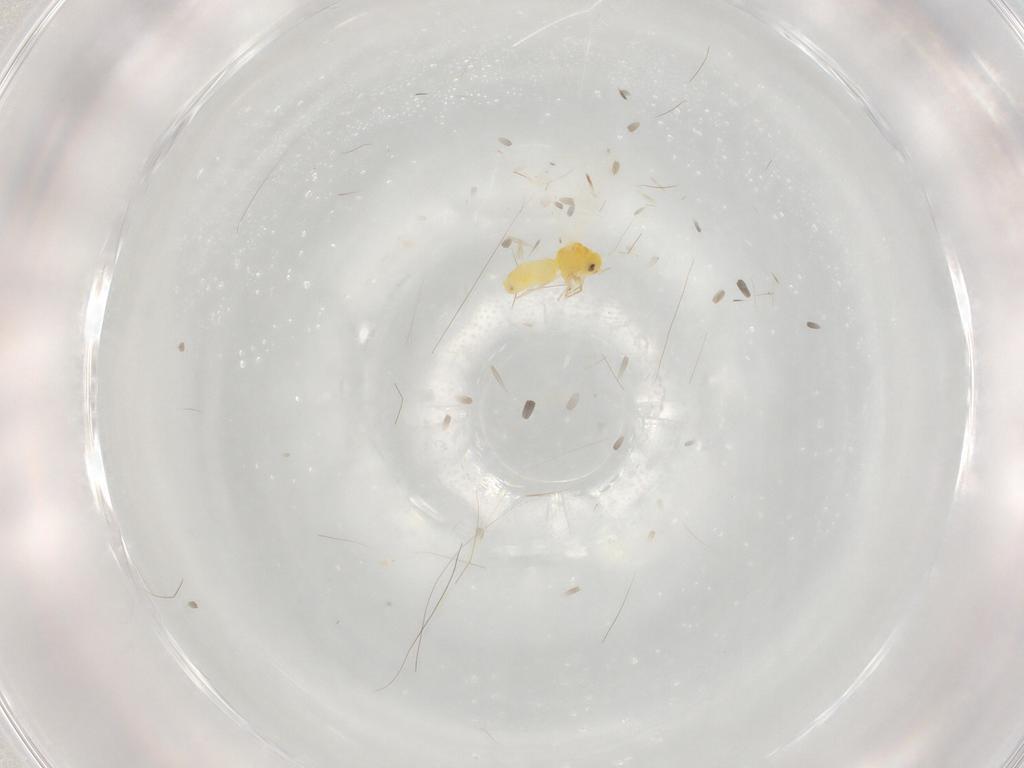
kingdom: Animalia
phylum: Arthropoda
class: Insecta
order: Hemiptera
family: Aleyrodidae
